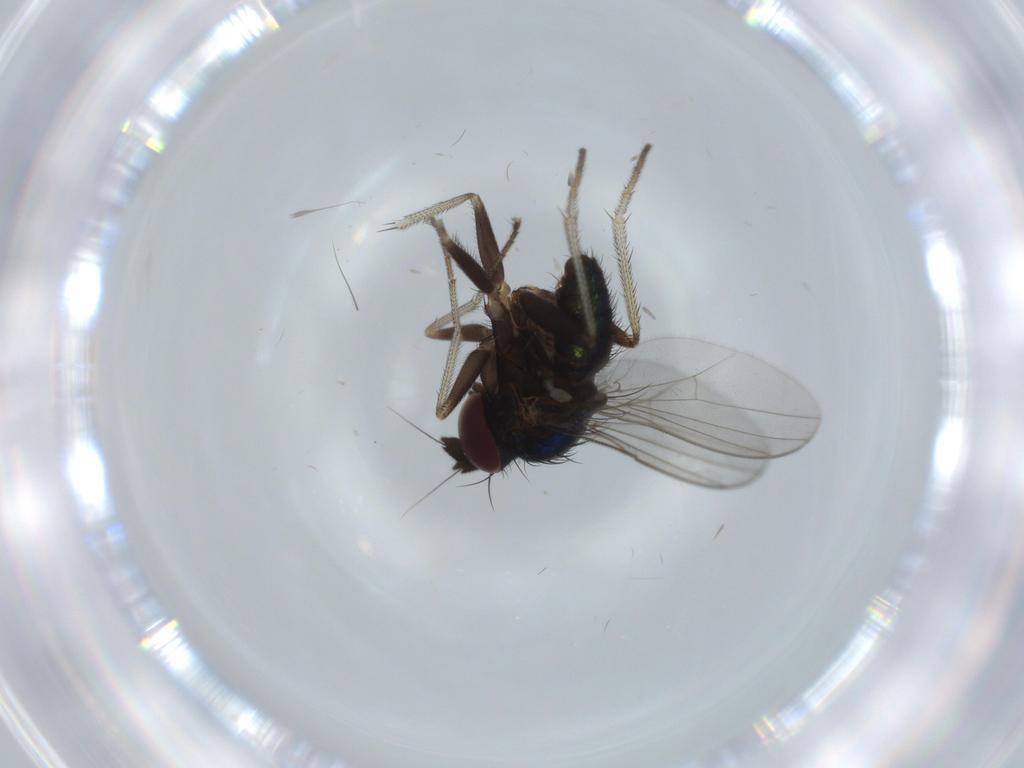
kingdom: Animalia
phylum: Arthropoda
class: Insecta
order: Diptera
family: Dolichopodidae
